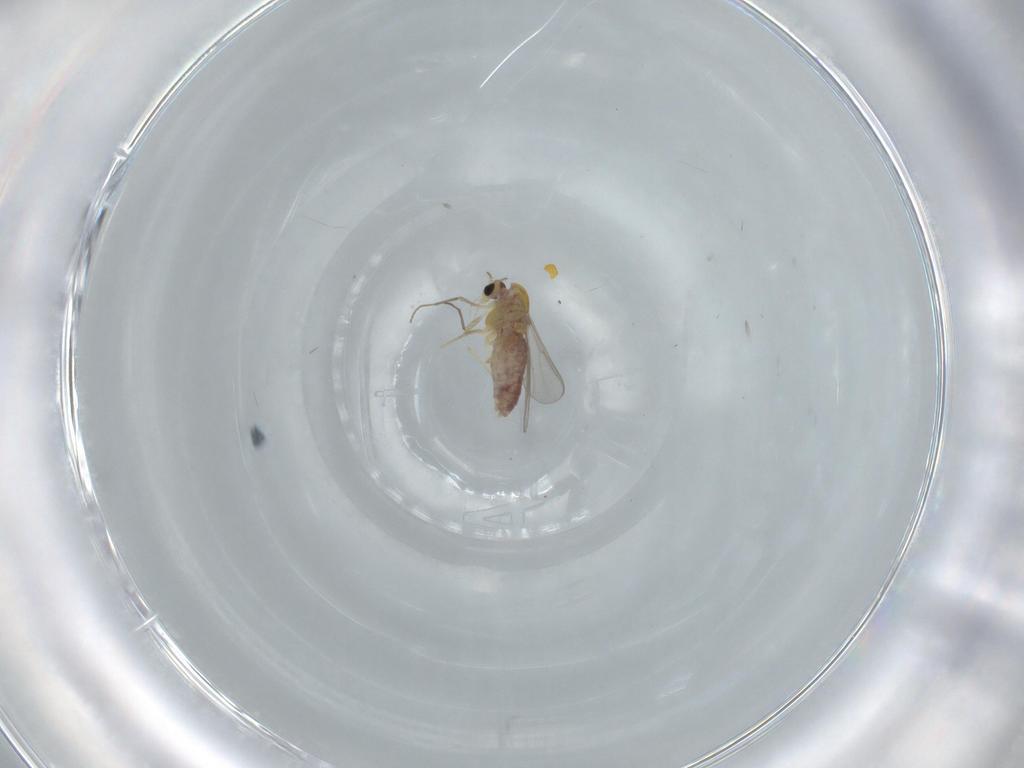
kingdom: Animalia
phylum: Arthropoda
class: Insecta
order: Diptera
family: Chironomidae
